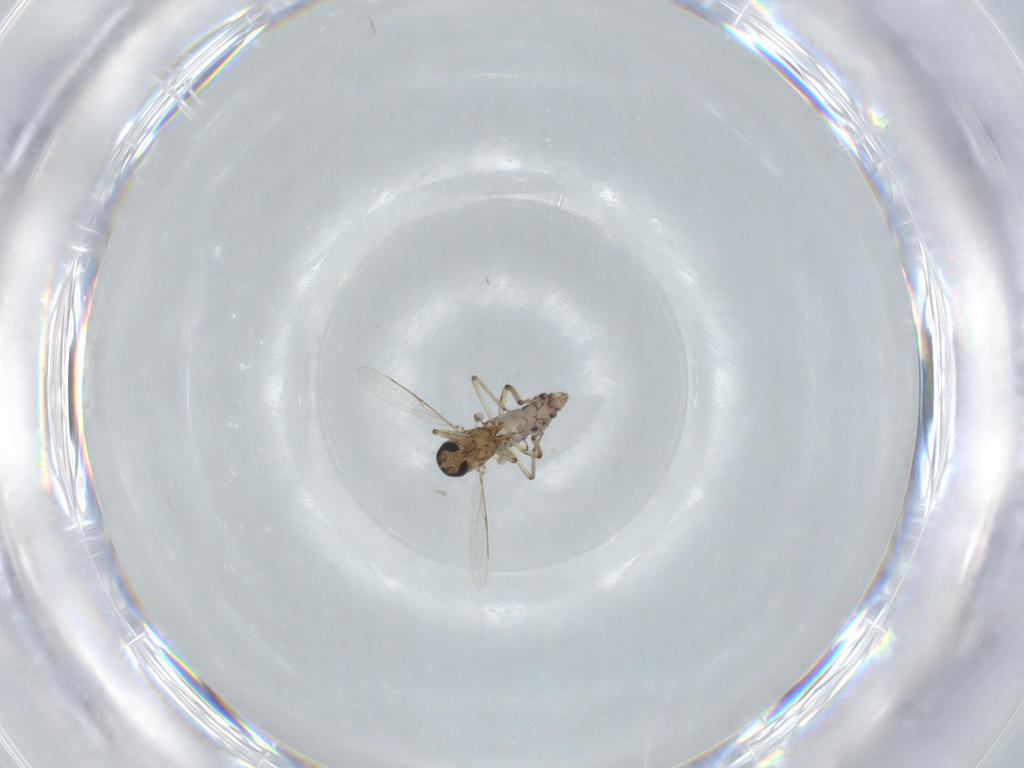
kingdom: Animalia
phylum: Arthropoda
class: Insecta
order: Diptera
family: Ceratopogonidae
